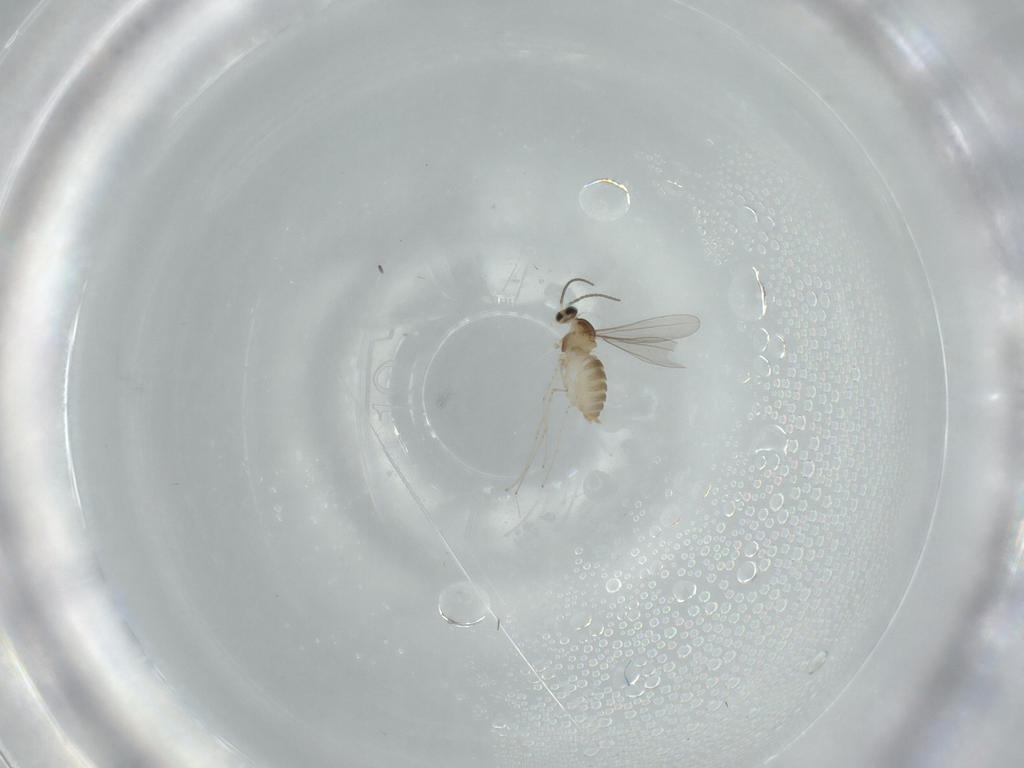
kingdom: Animalia
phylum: Arthropoda
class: Insecta
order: Diptera
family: Cecidomyiidae
